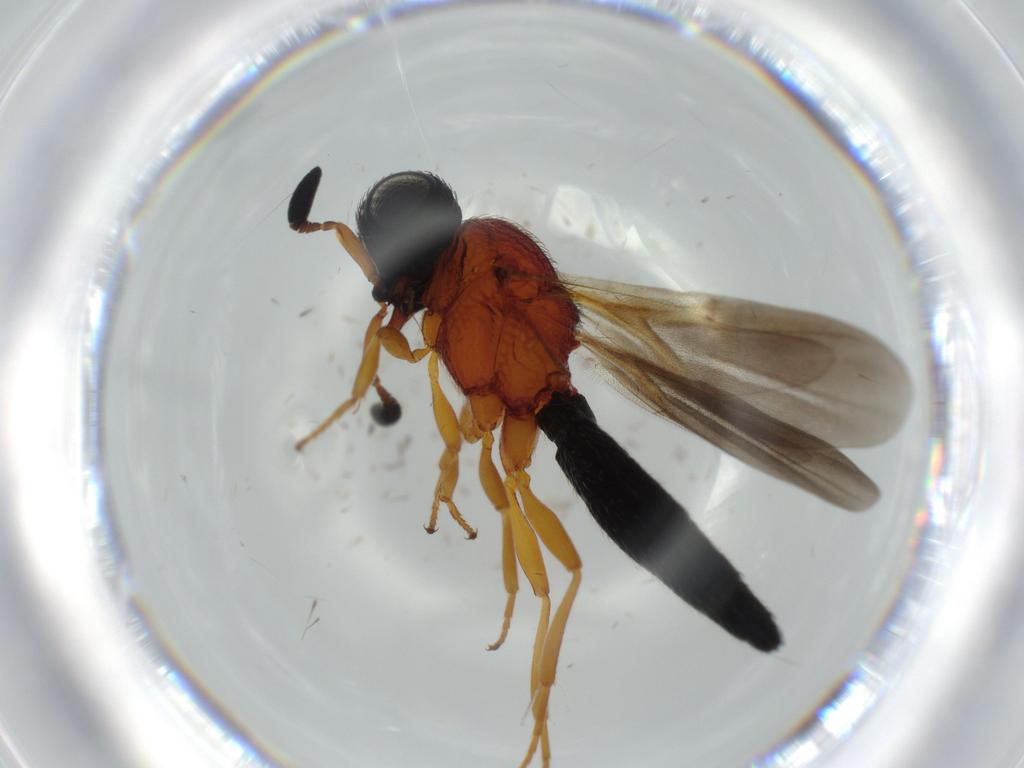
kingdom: Animalia
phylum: Arthropoda
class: Insecta
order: Hymenoptera
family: Scelionidae
